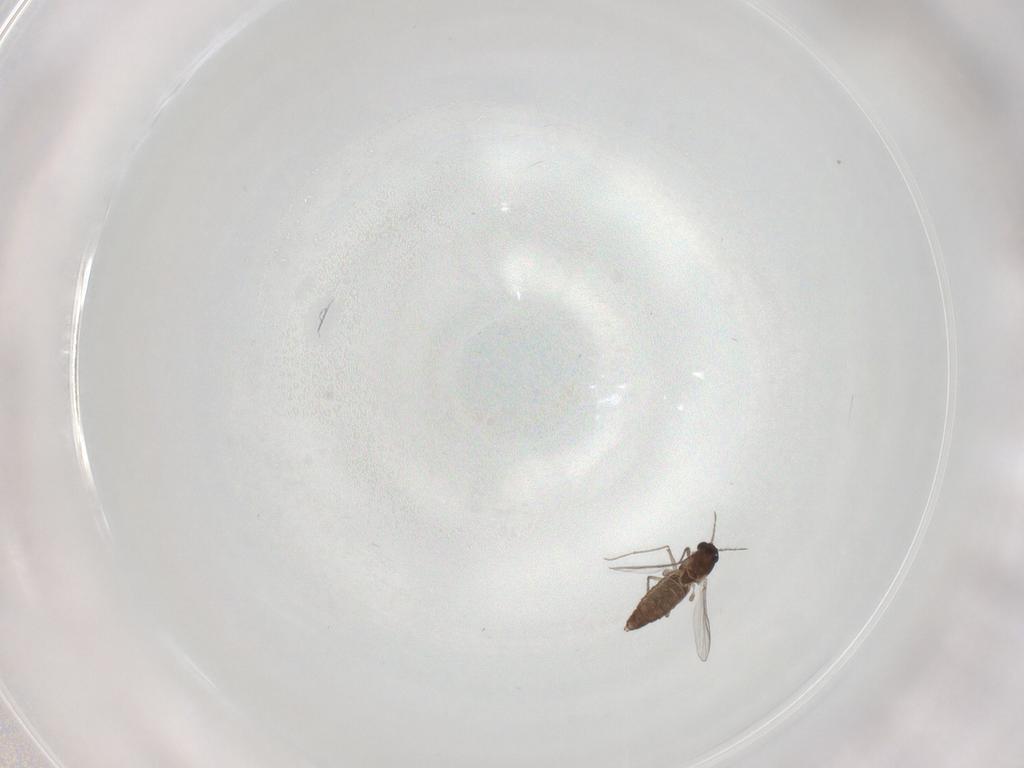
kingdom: Animalia
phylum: Arthropoda
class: Insecta
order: Diptera
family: Chironomidae
